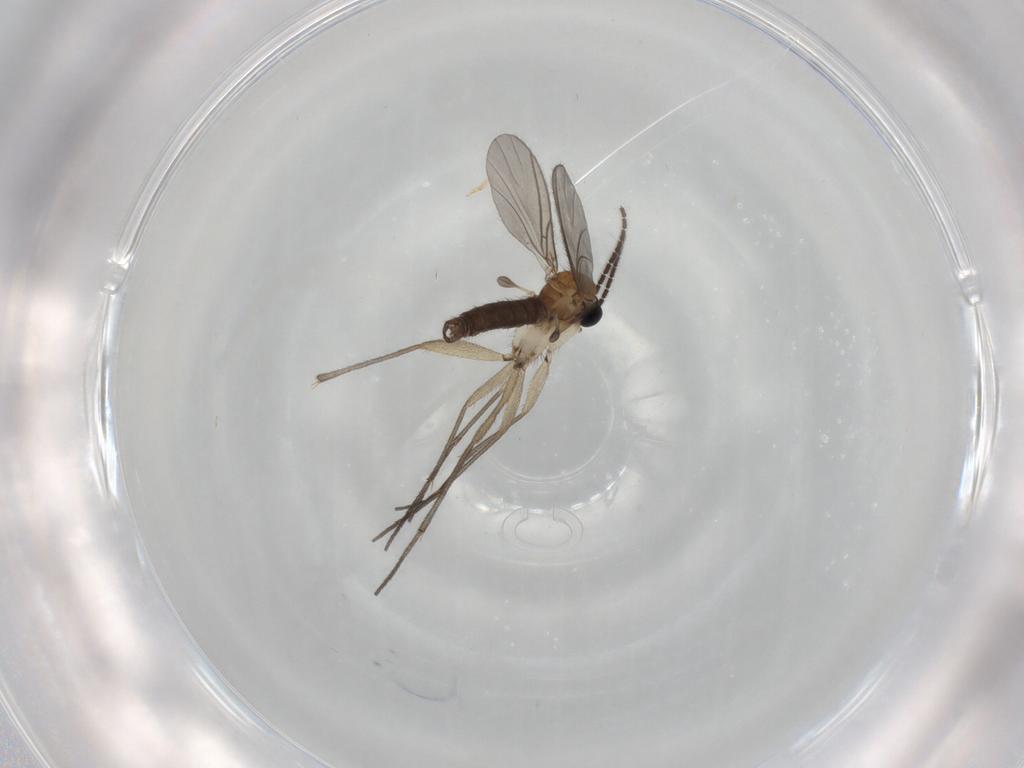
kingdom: Animalia
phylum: Arthropoda
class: Insecta
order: Diptera
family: Sciaridae
